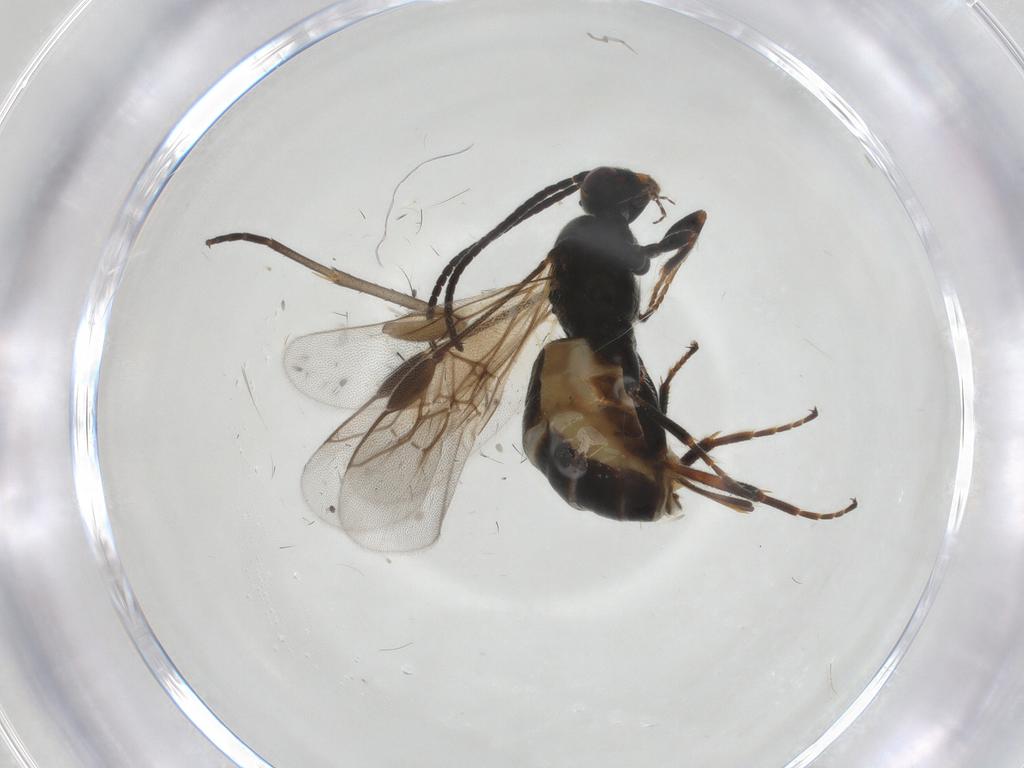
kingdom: Animalia
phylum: Arthropoda
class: Insecta
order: Hymenoptera
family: Braconidae
